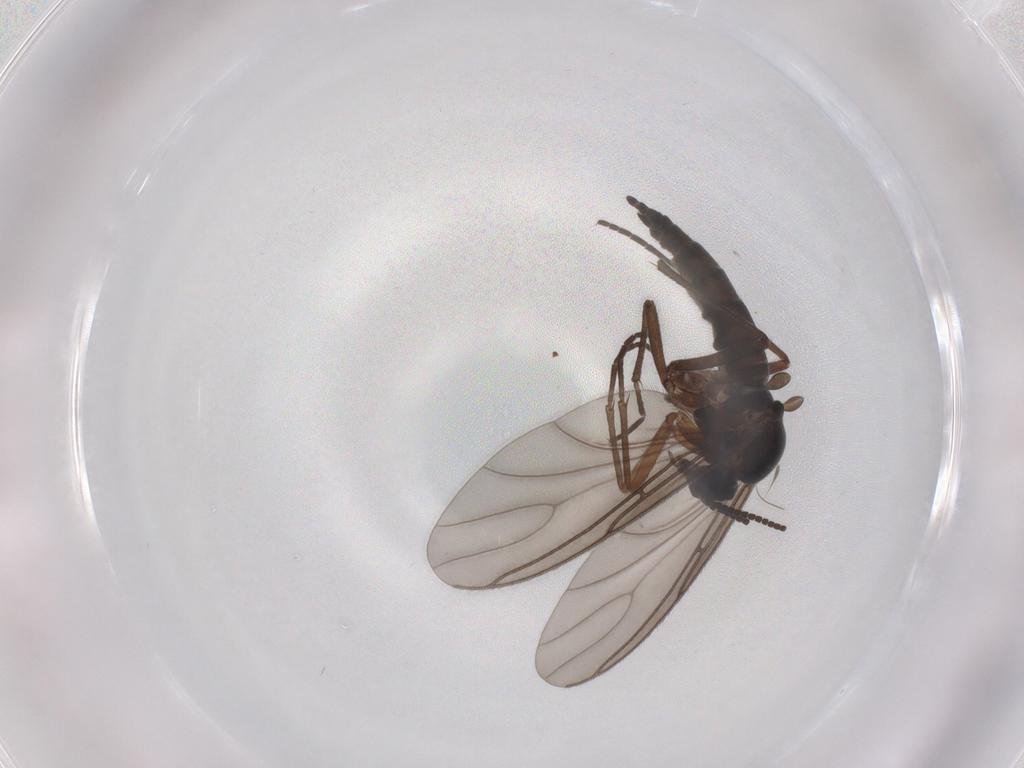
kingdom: Animalia
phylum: Arthropoda
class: Insecta
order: Diptera
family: Sciaridae
